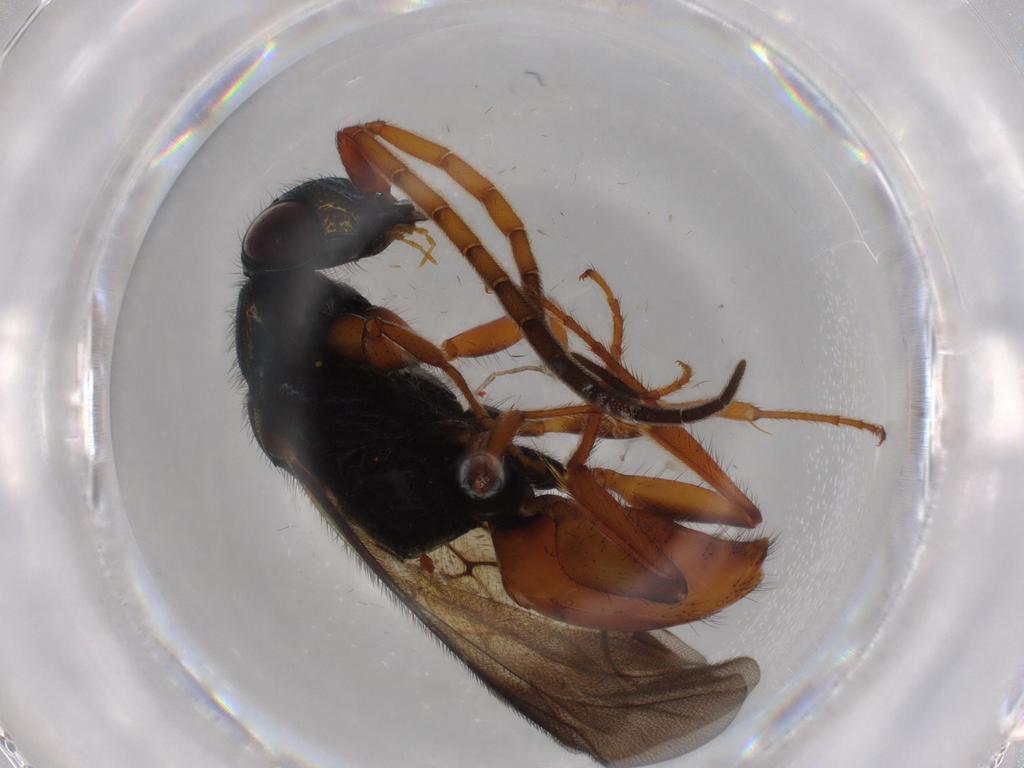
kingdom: Animalia
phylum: Arthropoda
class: Insecta
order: Hymenoptera
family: Chrysididae
